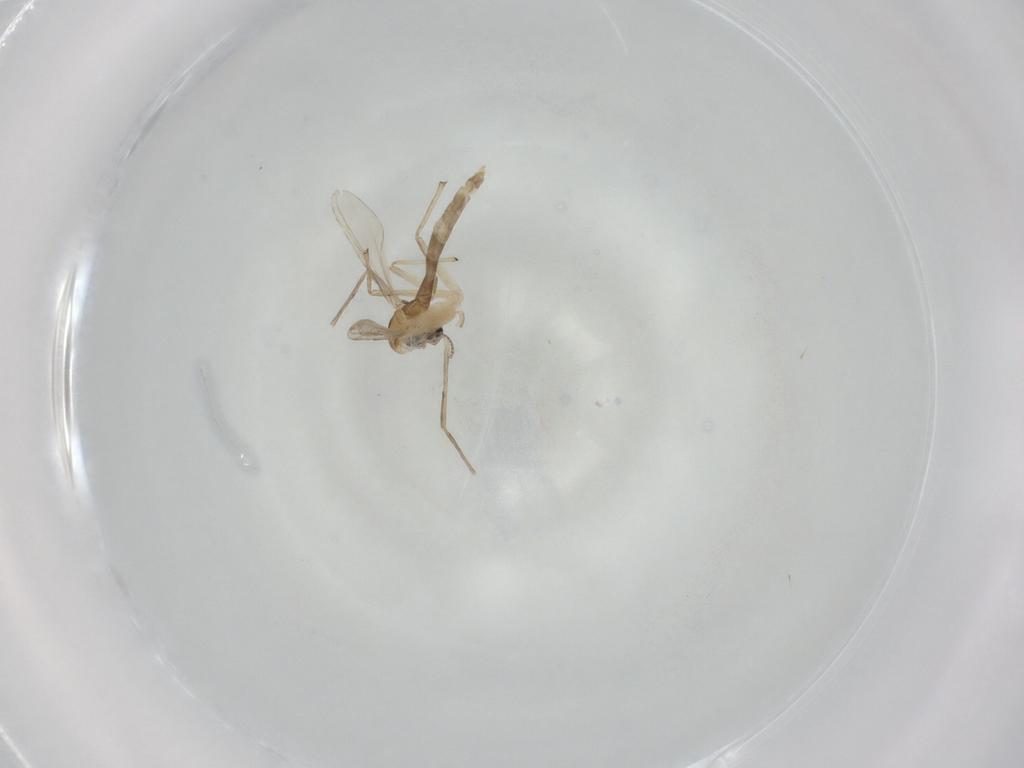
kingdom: Animalia
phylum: Arthropoda
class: Insecta
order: Diptera
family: Chironomidae
